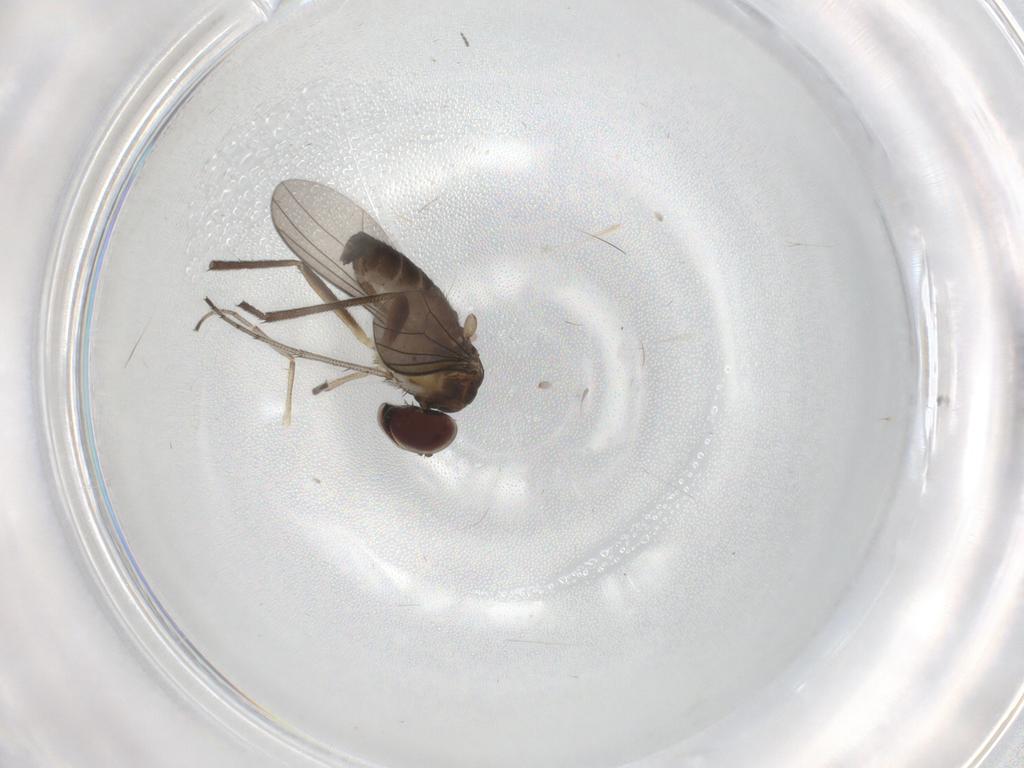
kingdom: Animalia
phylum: Arthropoda
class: Insecta
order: Diptera
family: Dolichopodidae
